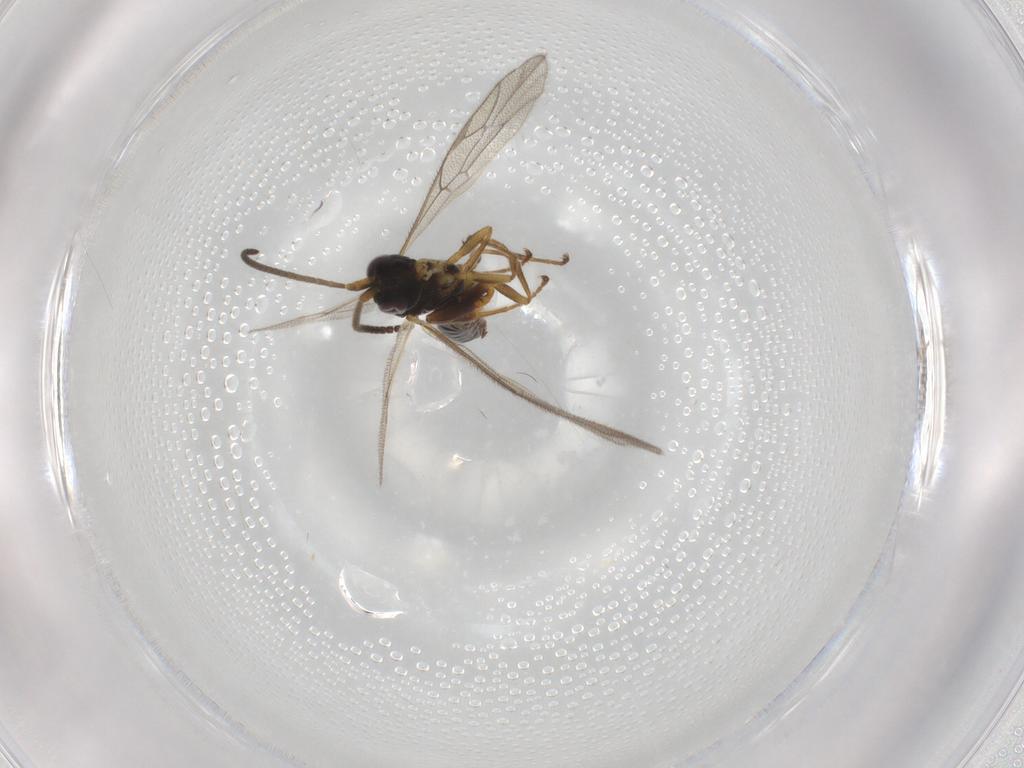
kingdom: Animalia
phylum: Arthropoda
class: Insecta
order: Hymenoptera
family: Ichneumonidae
